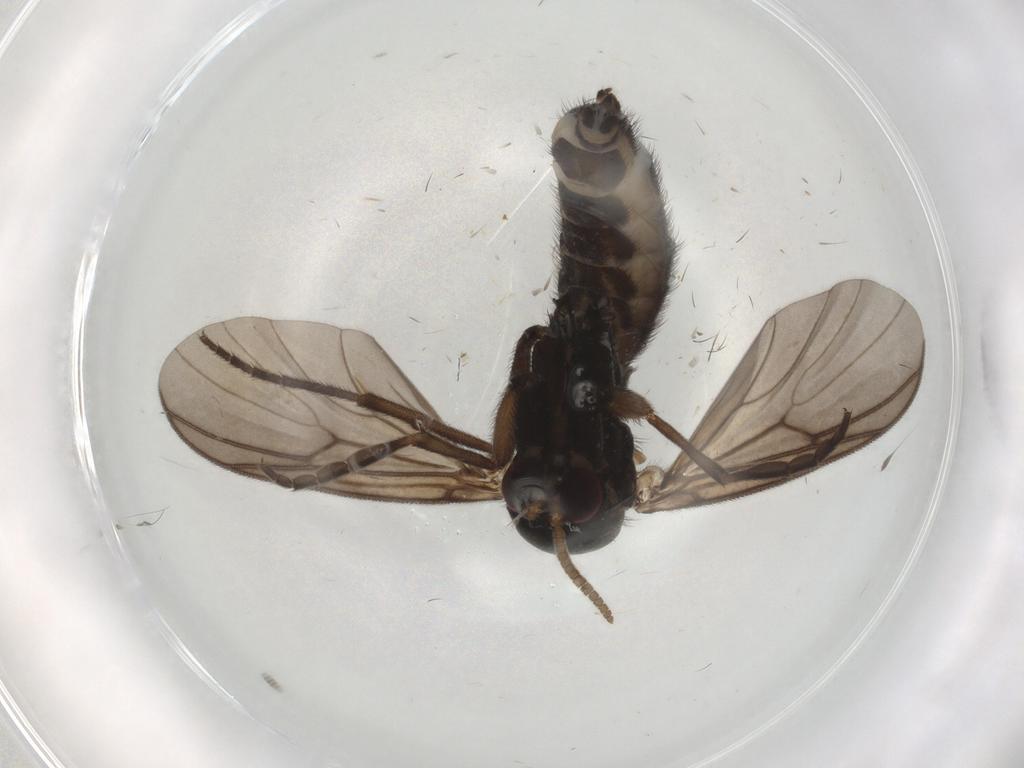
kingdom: Animalia
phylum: Arthropoda
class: Insecta
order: Diptera
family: Mycetophilidae
